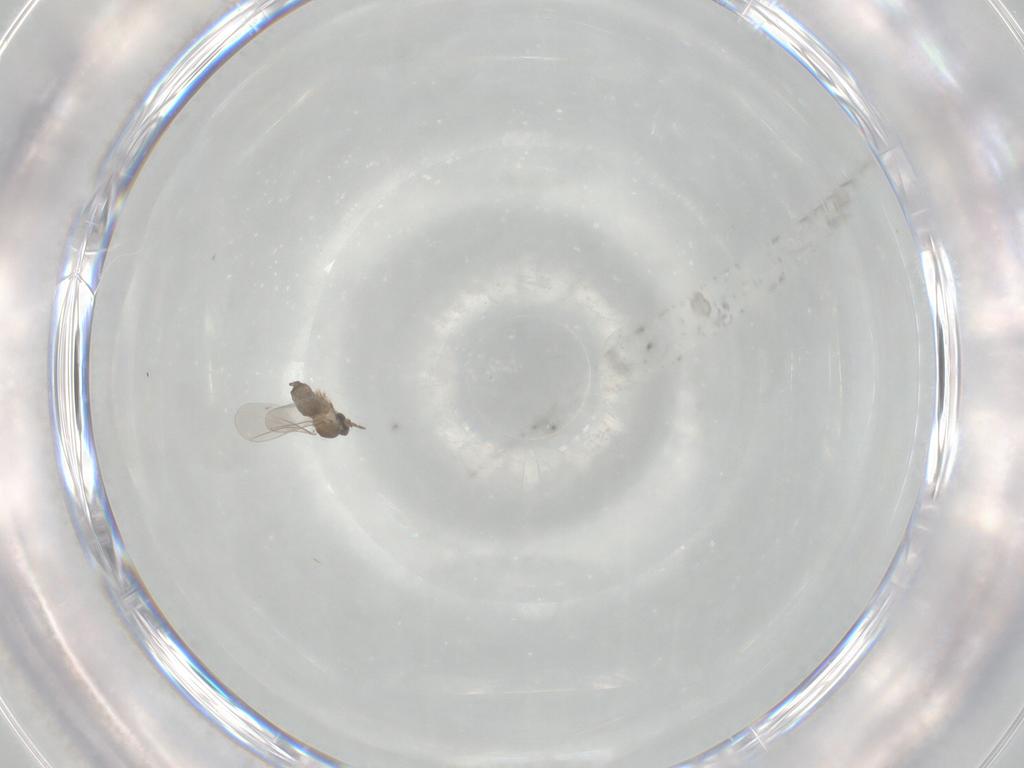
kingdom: Animalia
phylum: Arthropoda
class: Insecta
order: Diptera
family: Cecidomyiidae
